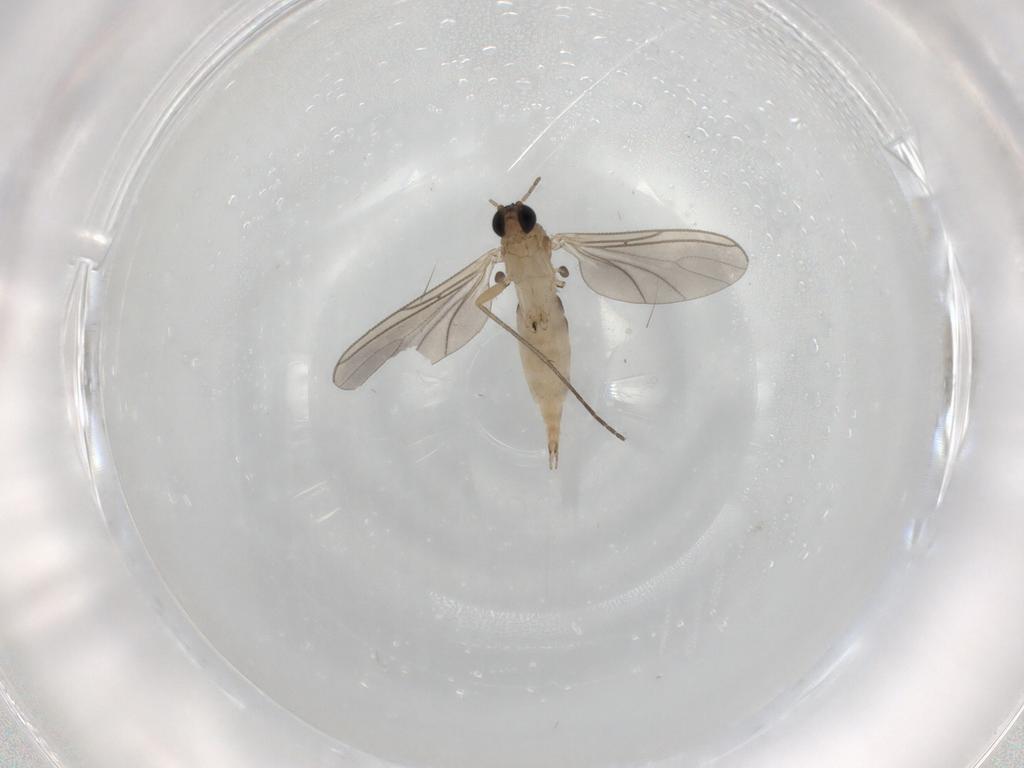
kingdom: Animalia
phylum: Arthropoda
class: Insecta
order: Diptera
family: Sciaridae
